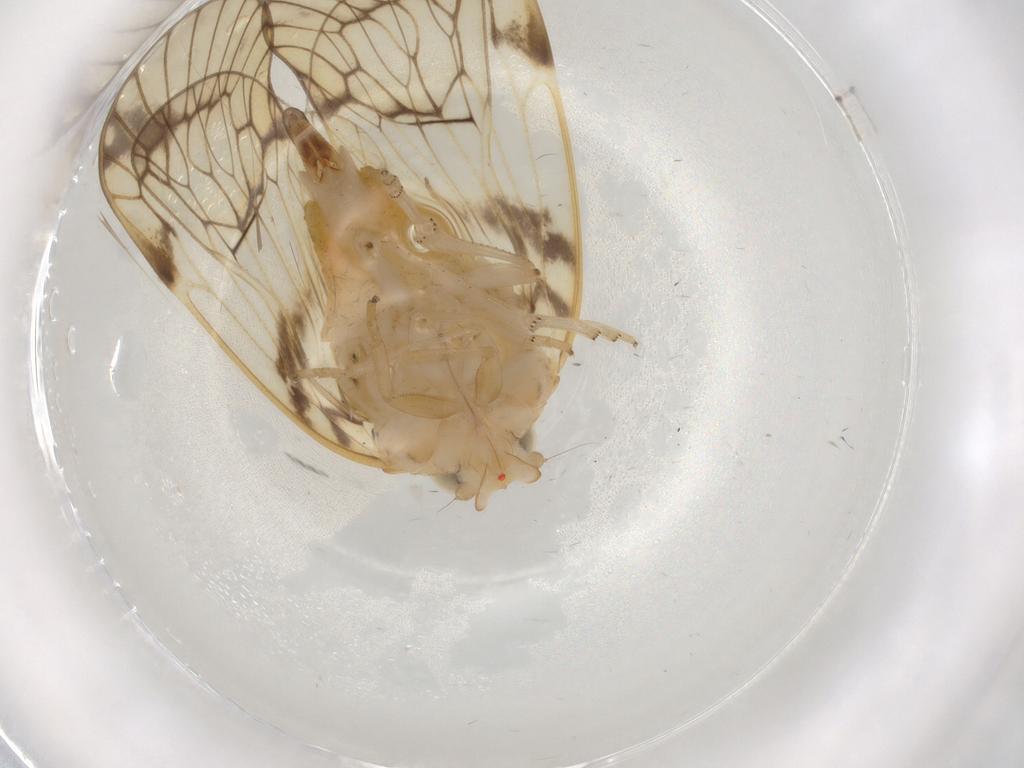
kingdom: Animalia
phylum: Arthropoda
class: Insecta
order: Hemiptera
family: Cixiidae
